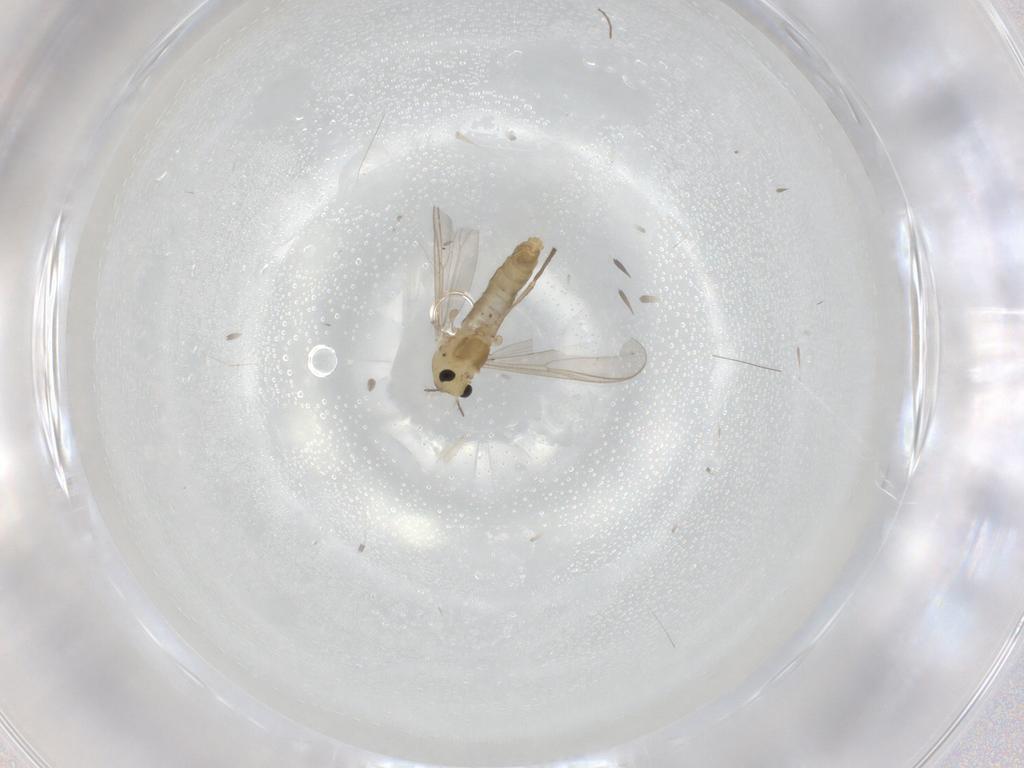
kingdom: Animalia
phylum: Arthropoda
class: Insecta
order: Diptera
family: Chironomidae
